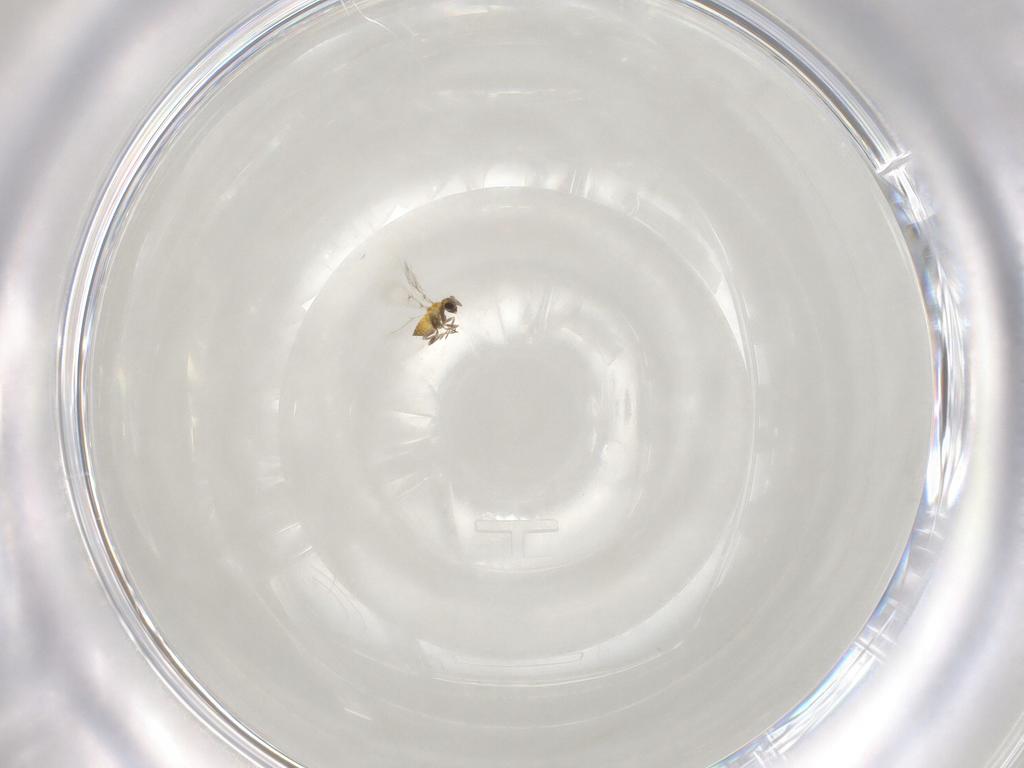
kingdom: Animalia
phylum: Arthropoda
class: Insecta
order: Hymenoptera
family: Trichogrammatidae
